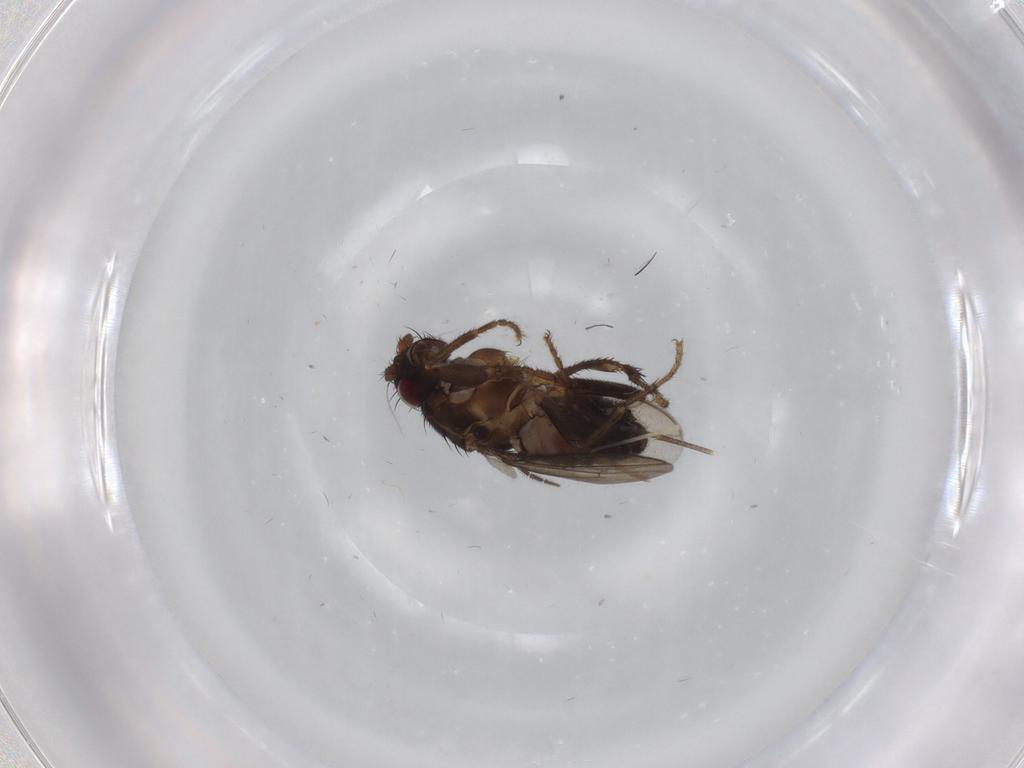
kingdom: Animalia
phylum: Arthropoda
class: Insecta
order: Diptera
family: Sphaeroceridae
